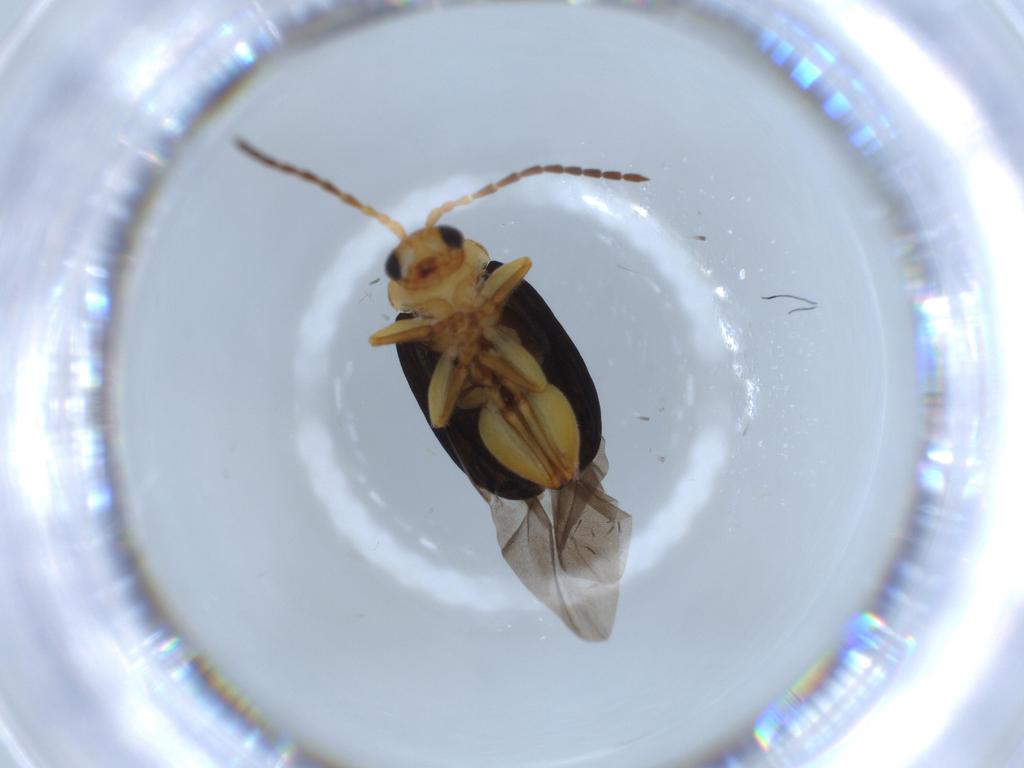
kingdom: Animalia
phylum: Arthropoda
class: Insecta
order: Coleoptera
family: Chrysomelidae
